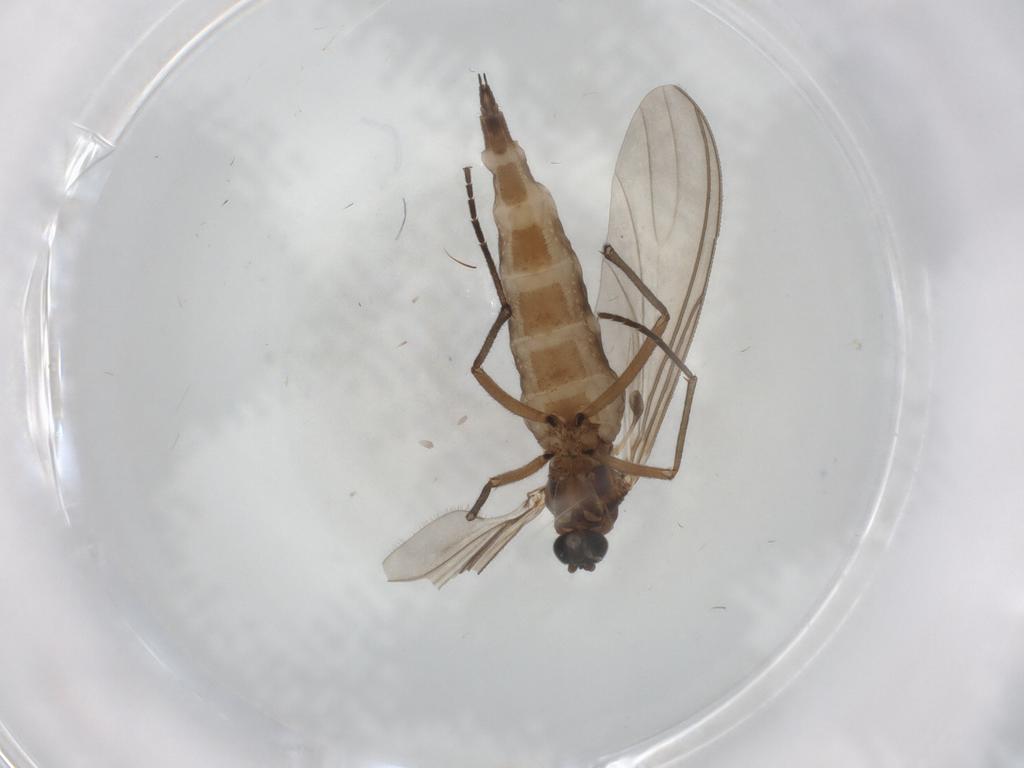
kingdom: Animalia
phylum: Arthropoda
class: Insecta
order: Diptera
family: Sciaridae
